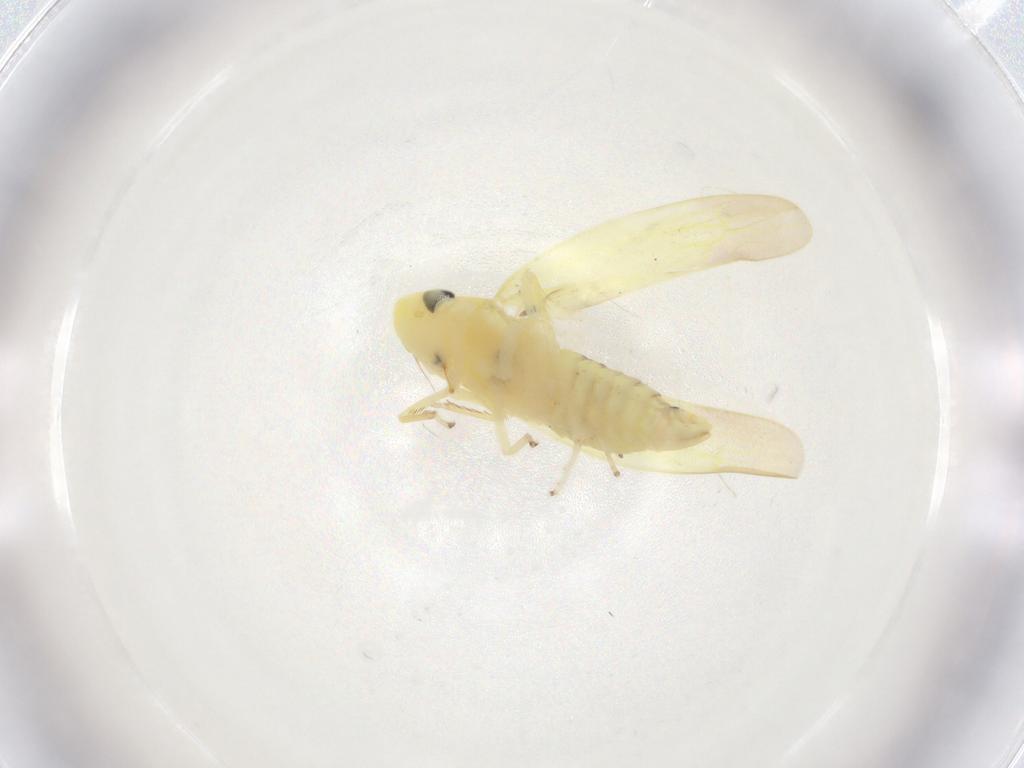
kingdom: Animalia
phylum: Arthropoda
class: Insecta
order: Hemiptera
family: Cicadellidae
